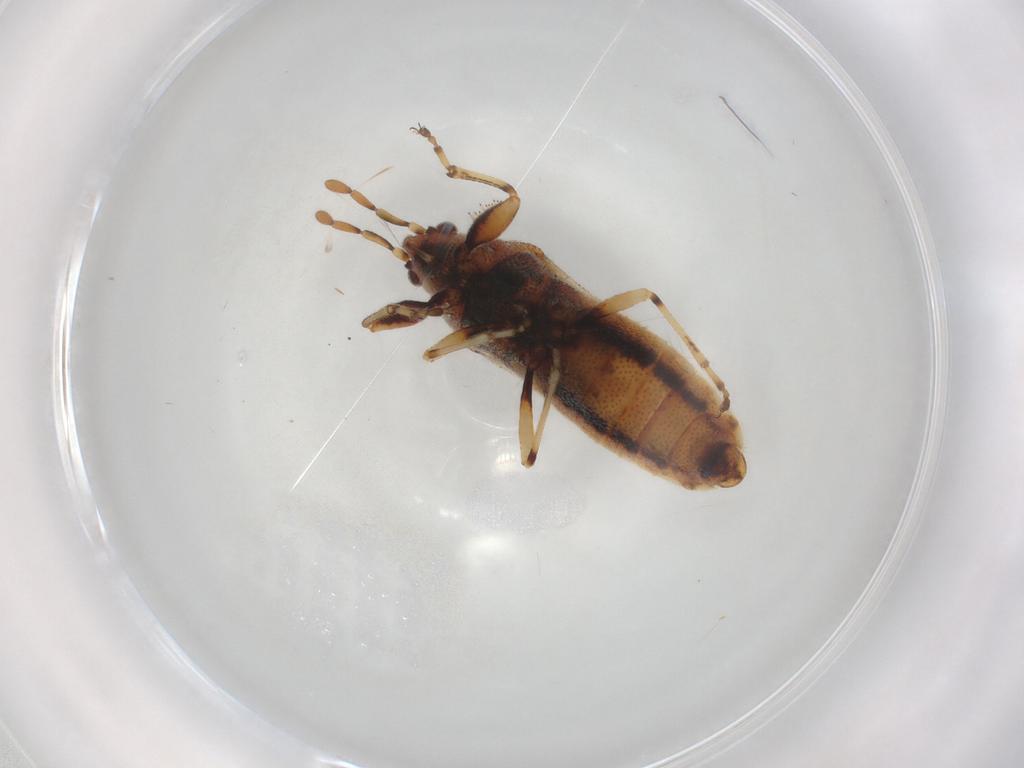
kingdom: Animalia
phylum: Arthropoda
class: Insecta
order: Hemiptera
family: Pachygronthidae
